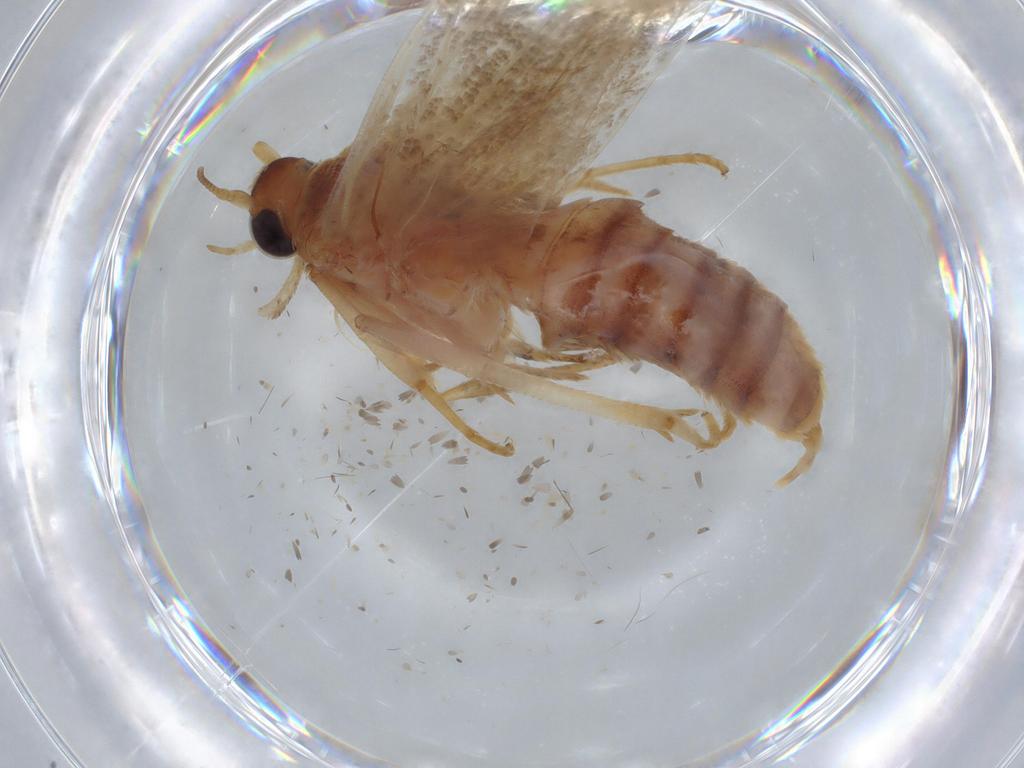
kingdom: Animalia
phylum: Arthropoda
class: Insecta
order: Lepidoptera
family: Blastobasidae
